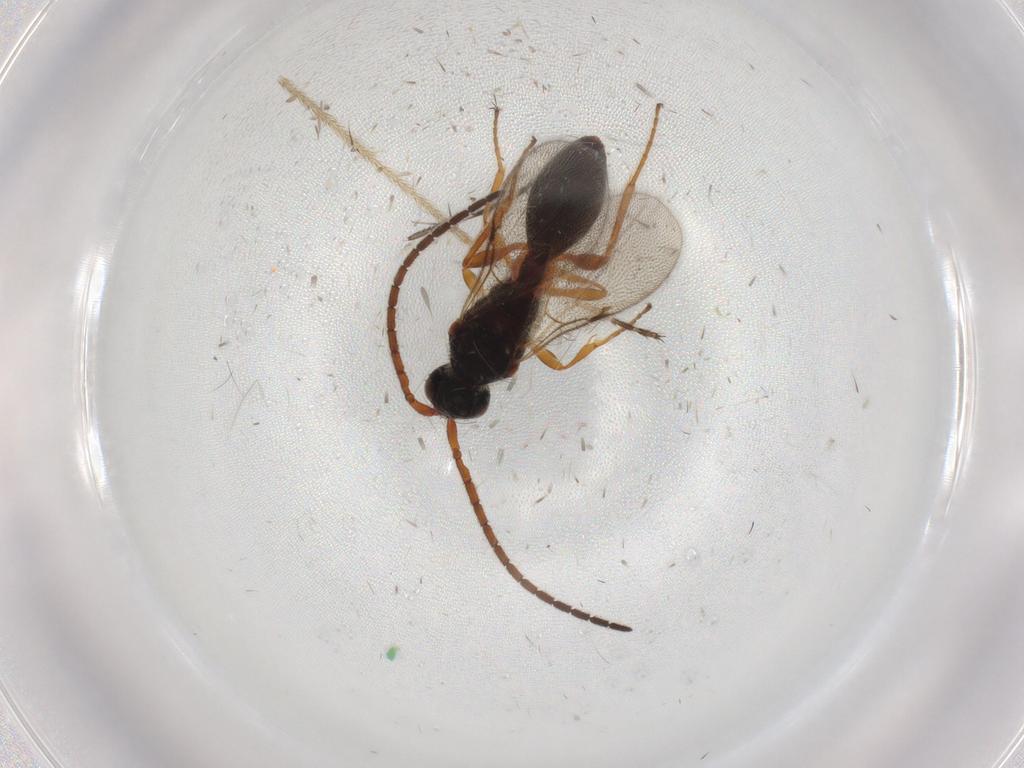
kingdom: Animalia
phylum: Arthropoda
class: Insecta
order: Hymenoptera
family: Diapriidae
